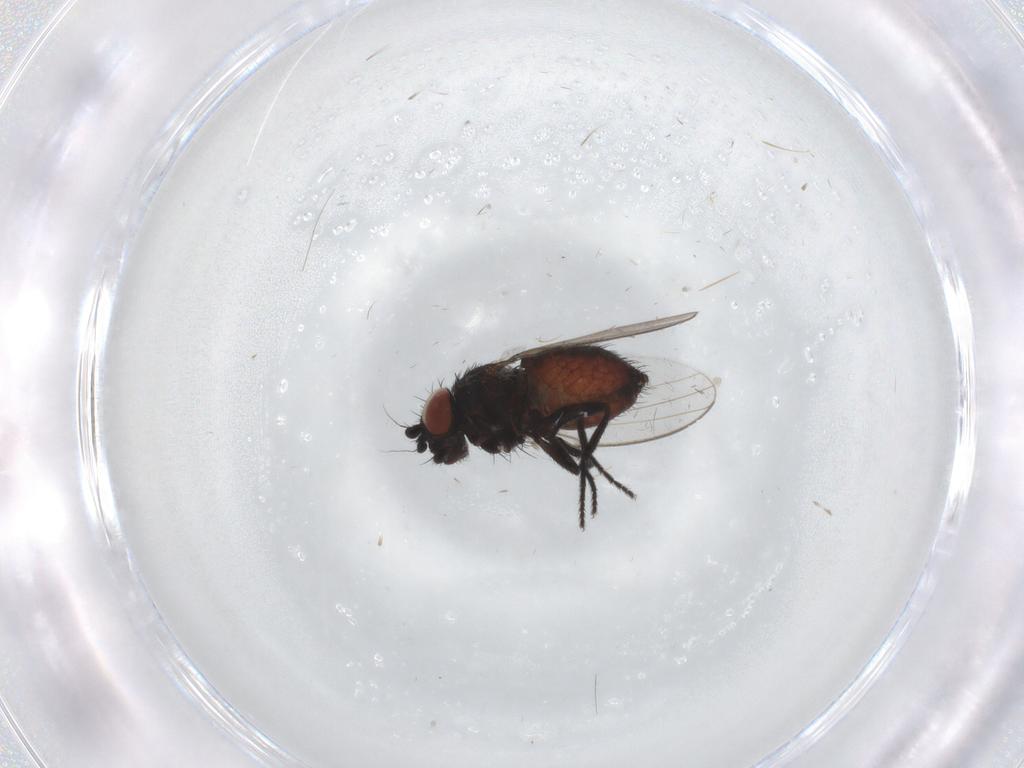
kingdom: Animalia
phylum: Arthropoda
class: Insecta
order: Diptera
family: Milichiidae
